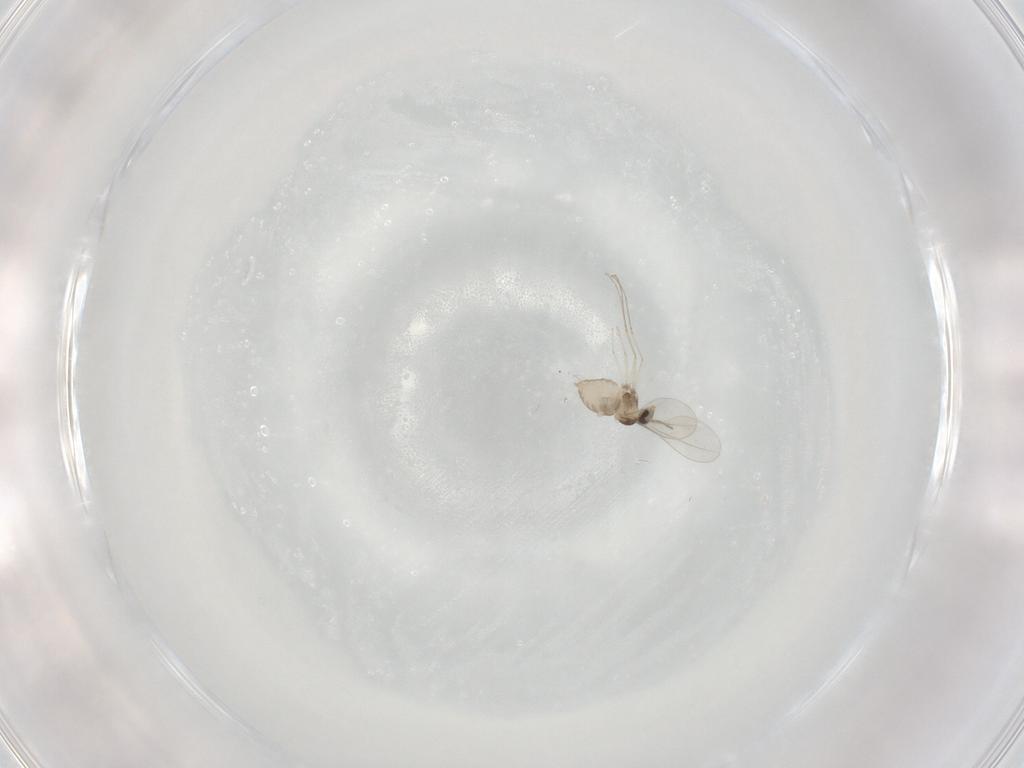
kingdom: Animalia
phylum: Arthropoda
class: Insecta
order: Diptera
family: Cecidomyiidae
